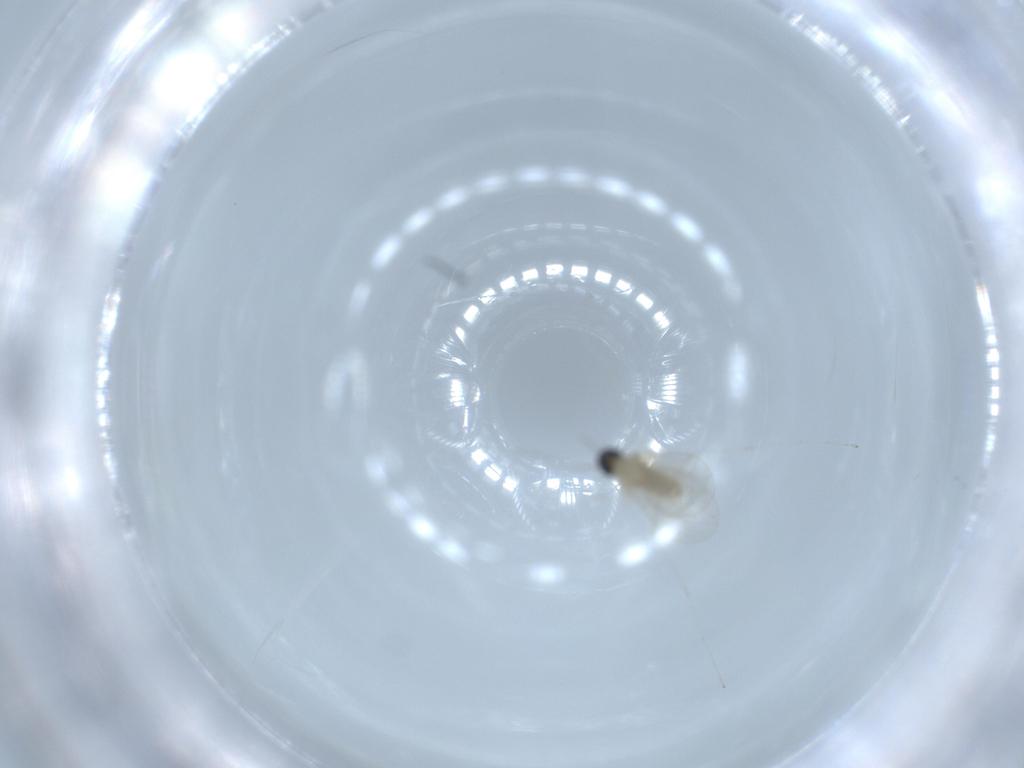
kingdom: Animalia
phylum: Arthropoda
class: Insecta
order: Diptera
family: Cecidomyiidae
